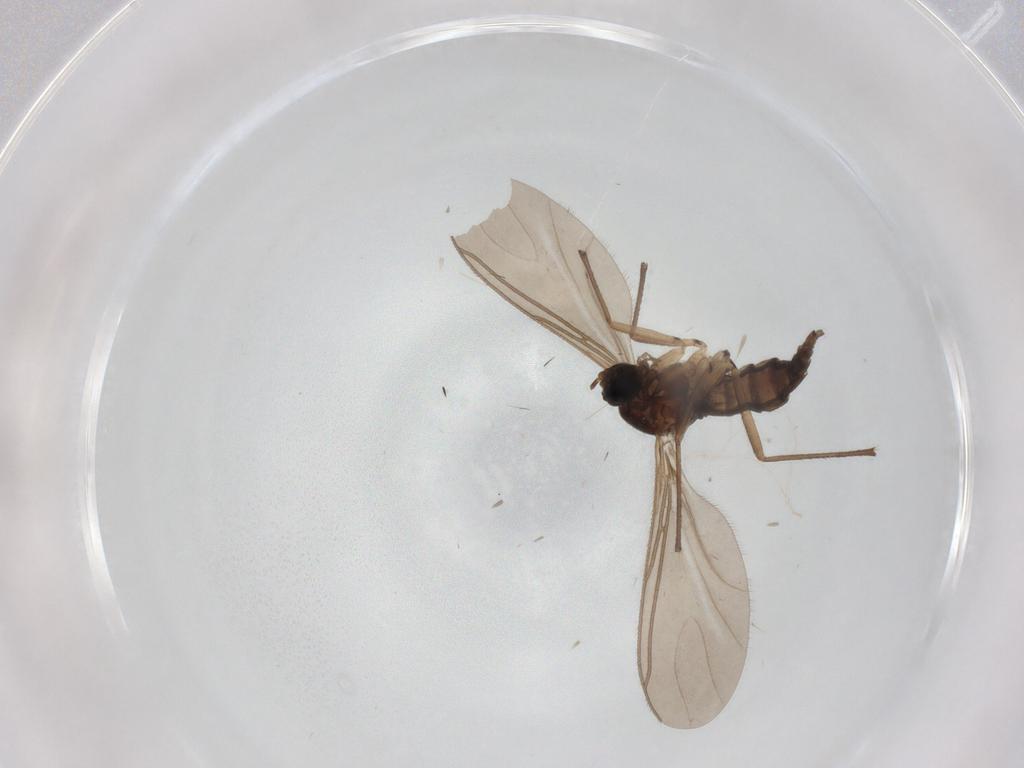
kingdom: Animalia
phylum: Arthropoda
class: Insecta
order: Diptera
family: Sciaridae
